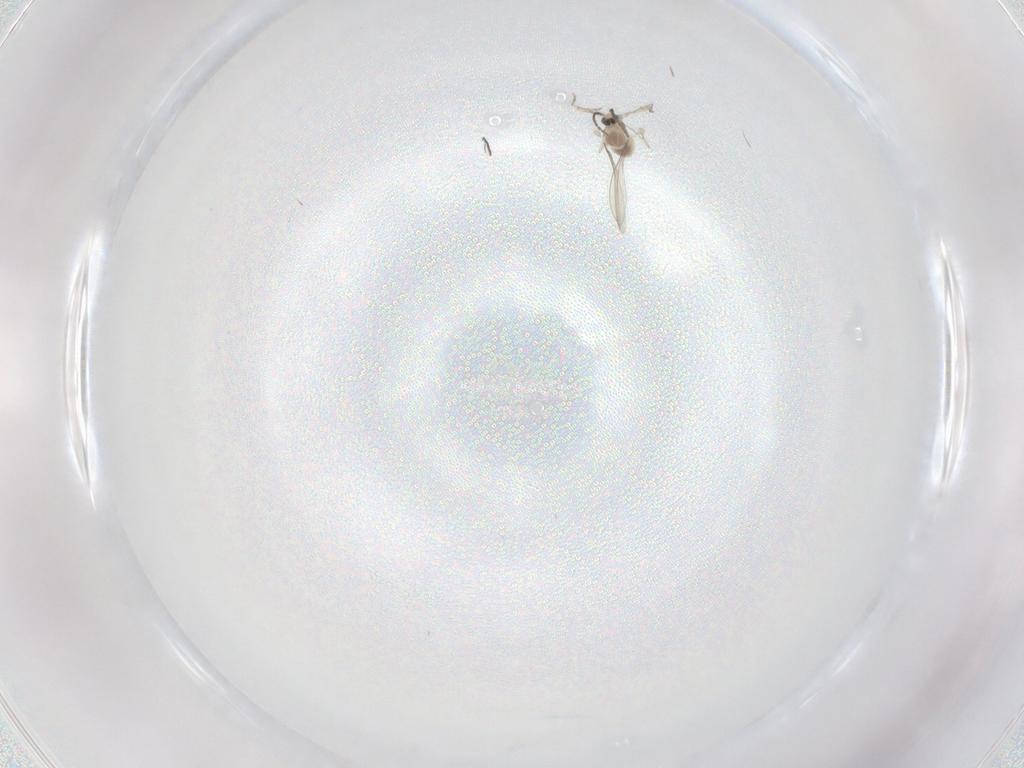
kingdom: Animalia
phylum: Arthropoda
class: Insecta
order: Diptera
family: Cecidomyiidae
